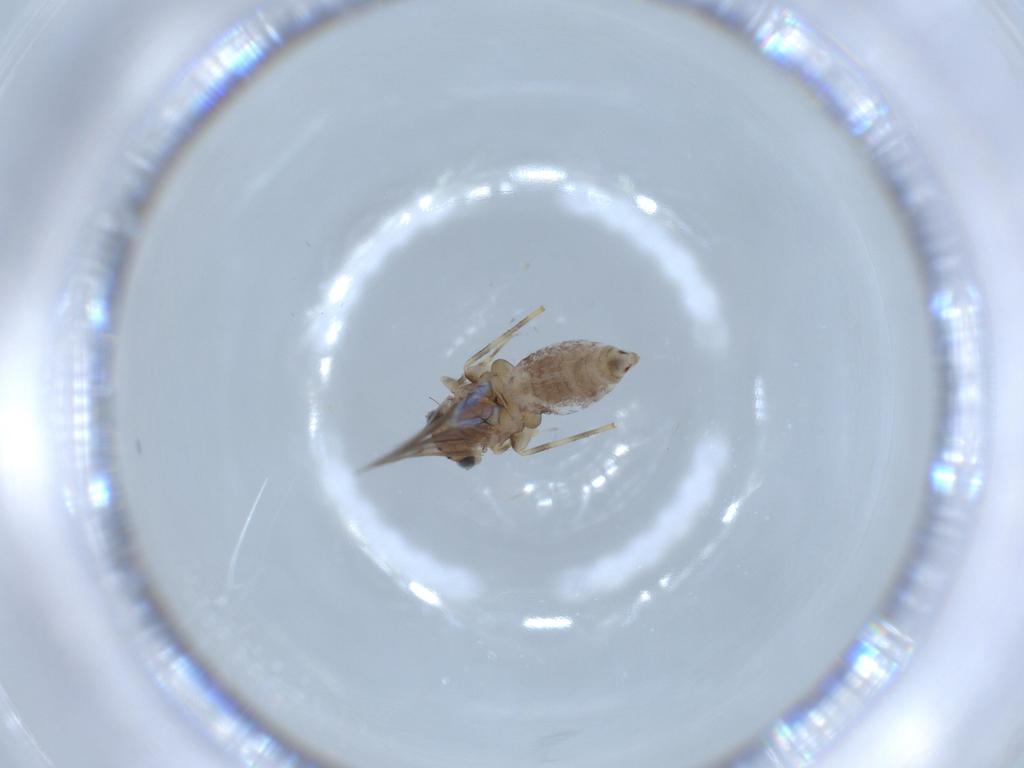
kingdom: Animalia
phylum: Arthropoda
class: Insecta
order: Psocodea
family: Lepidopsocidae
